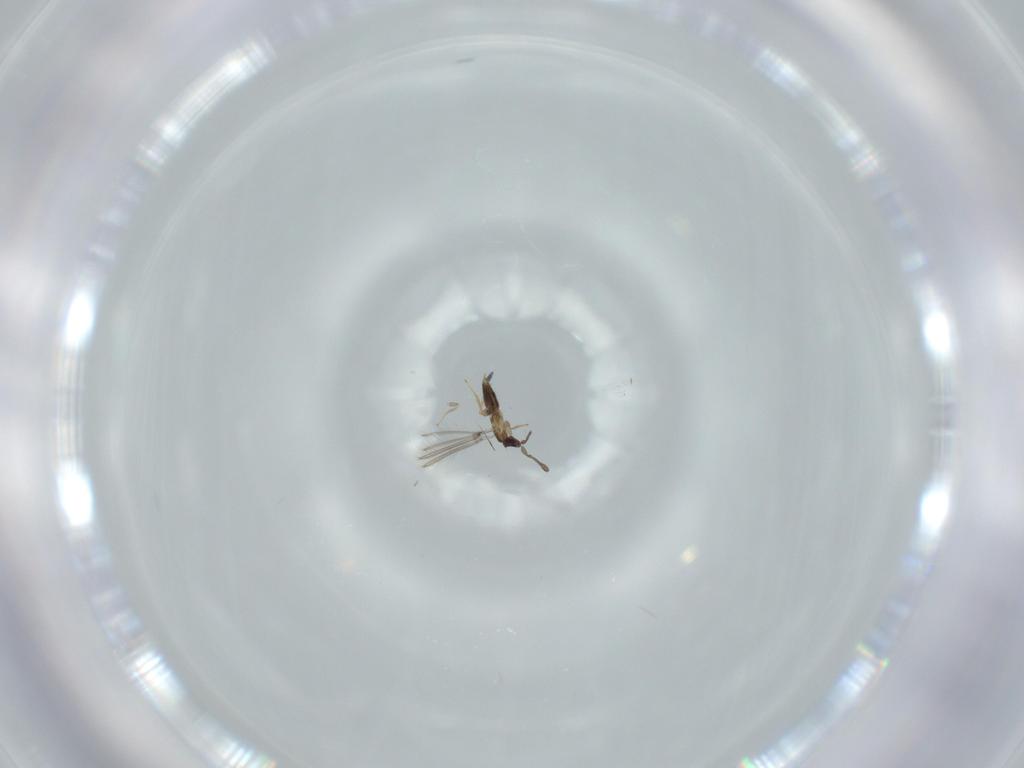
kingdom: Animalia
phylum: Arthropoda
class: Insecta
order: Hymenoptera
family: Mymaridae
